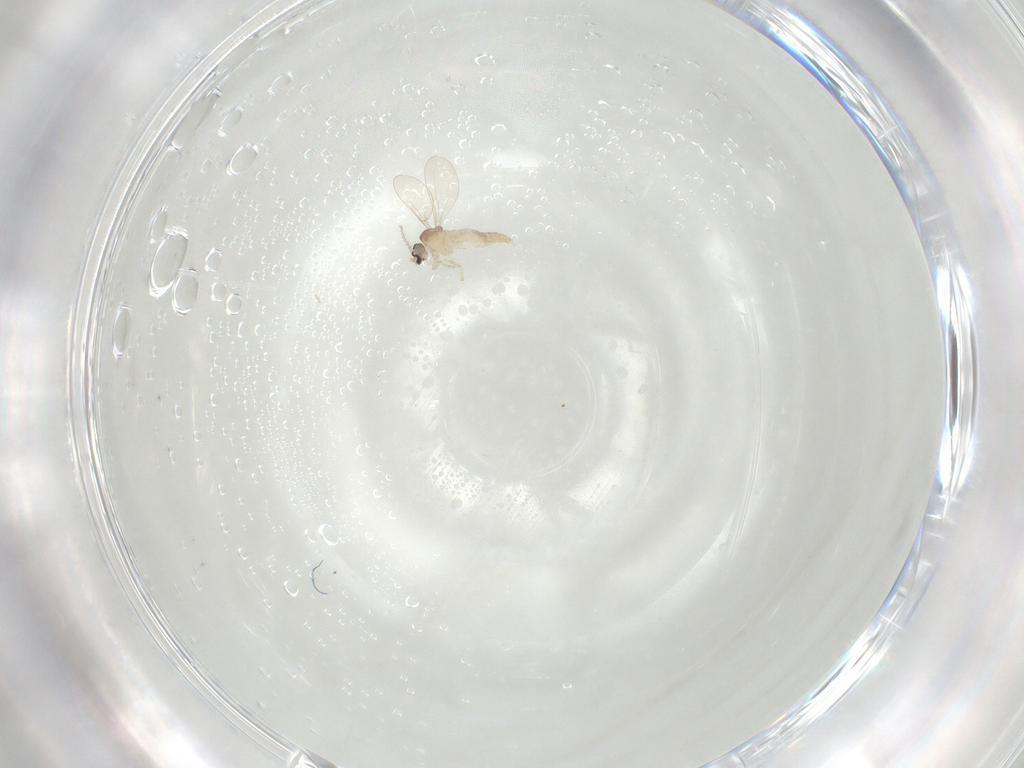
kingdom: Animalia
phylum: Arthropoda
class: Insecta
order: Diptera
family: Cecidomyiidae
